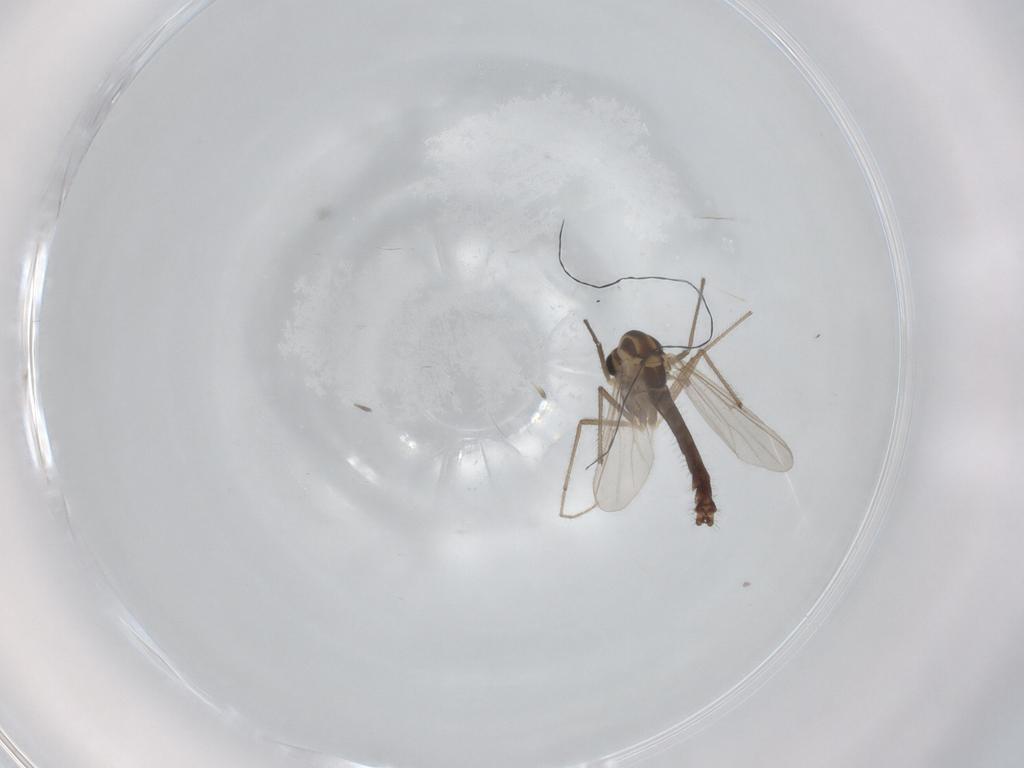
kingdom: Animalia
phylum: Arthropoda
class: Insecta
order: Diptera
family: Chironomidae
